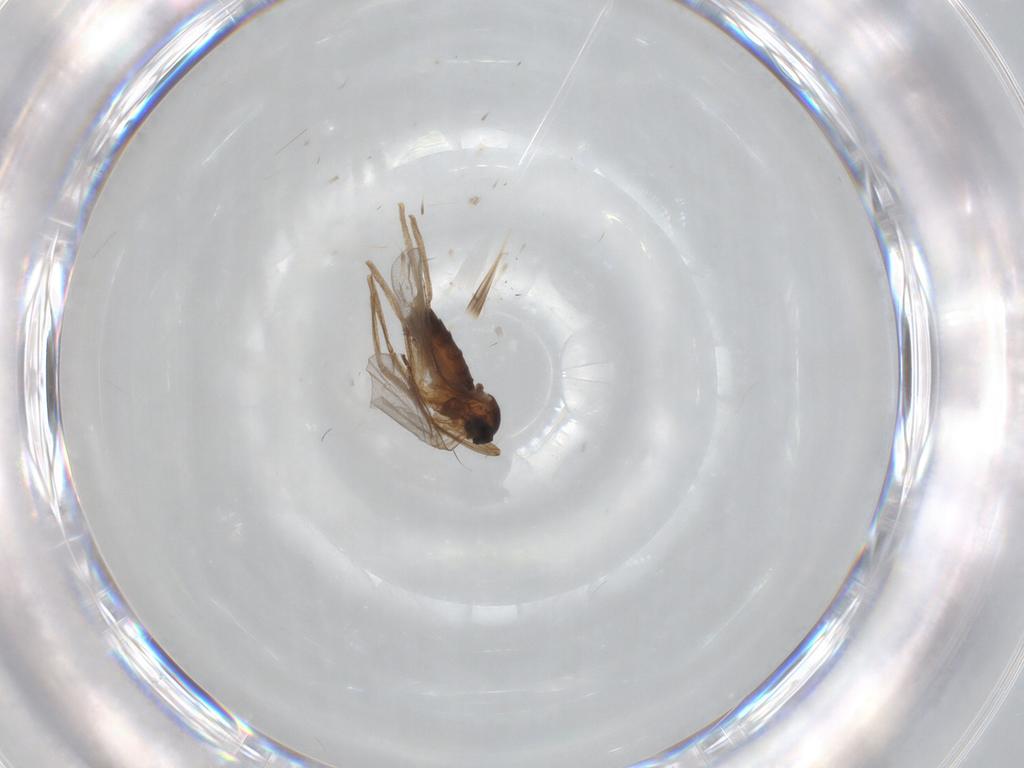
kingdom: Animalia
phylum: Arthropoda
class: Insecta
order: Diptera
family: Cecidomyiidae
